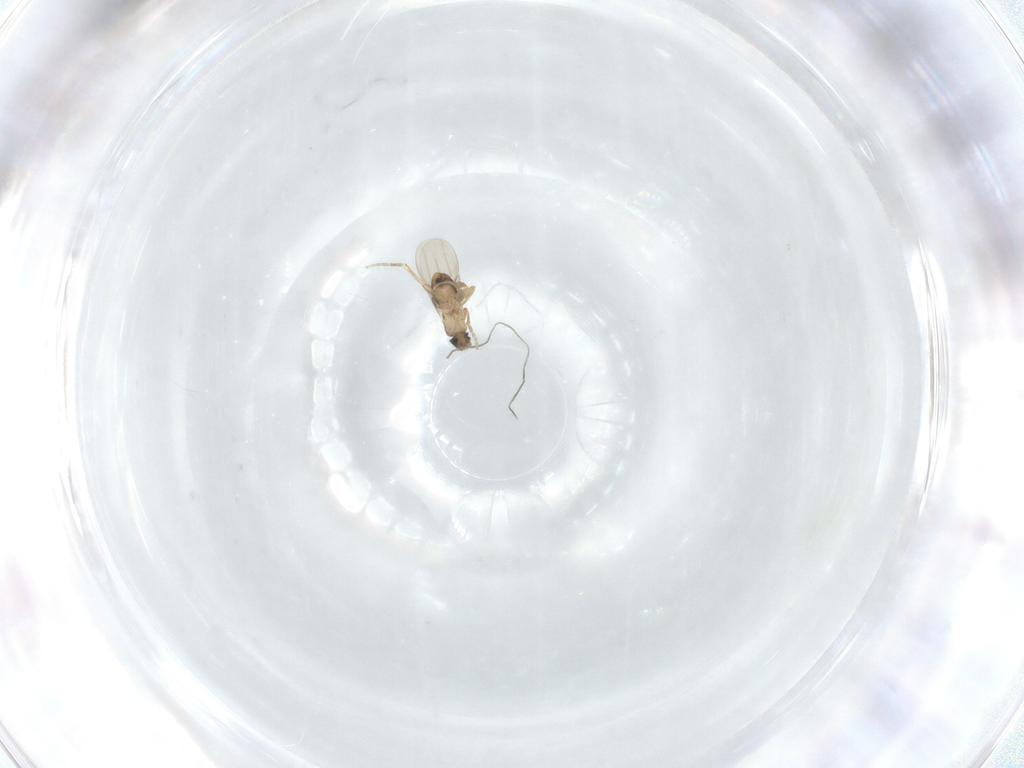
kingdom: Animalia
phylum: Arthropoda
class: Insecta
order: Diptera
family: Phoridae
